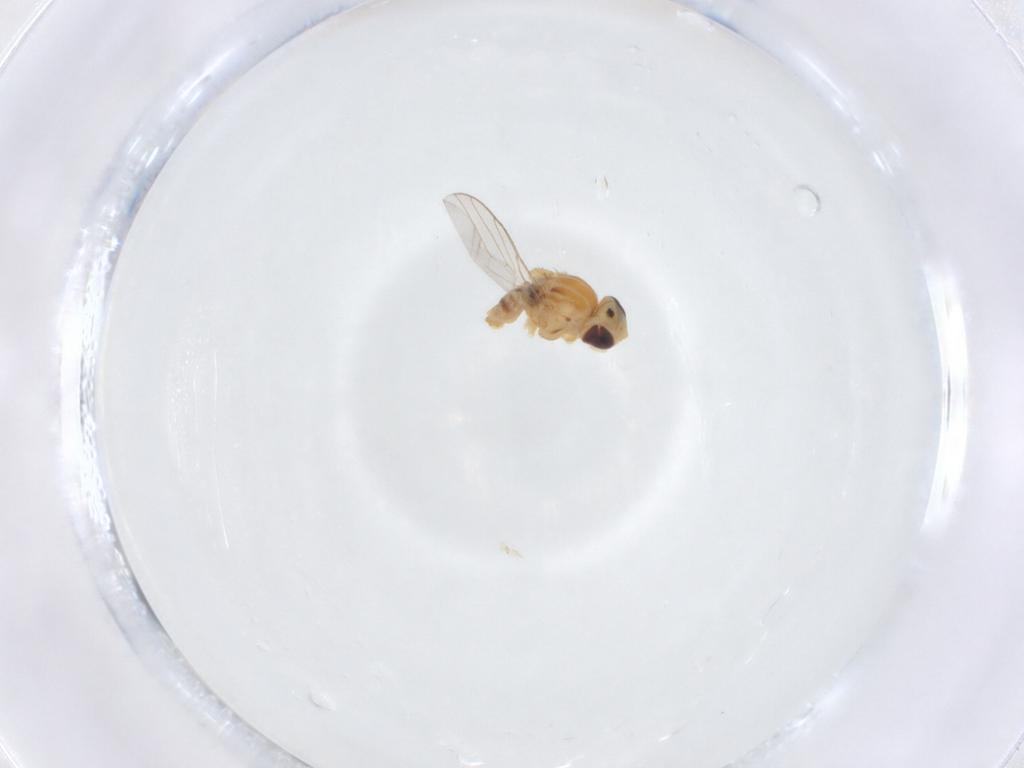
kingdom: Animalia
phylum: Arthropoda
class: Insecta
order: Diptera
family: Chloropidae
